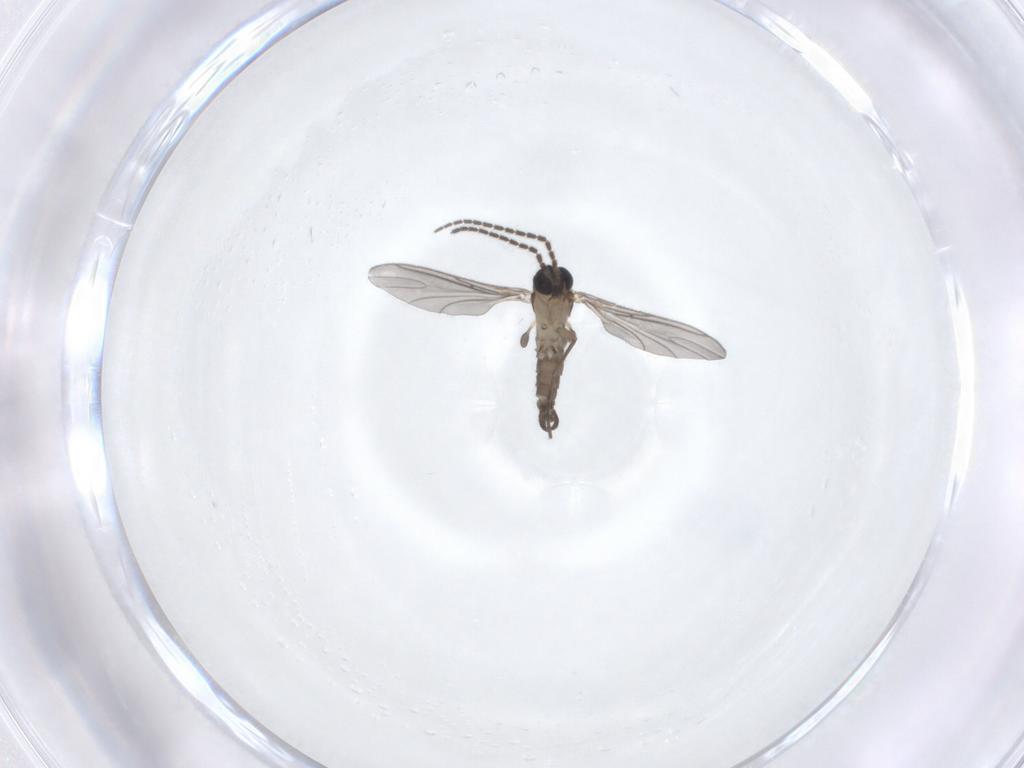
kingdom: Animalia
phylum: Arthropoda
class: Insecta
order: Diptera
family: Sciaridae
